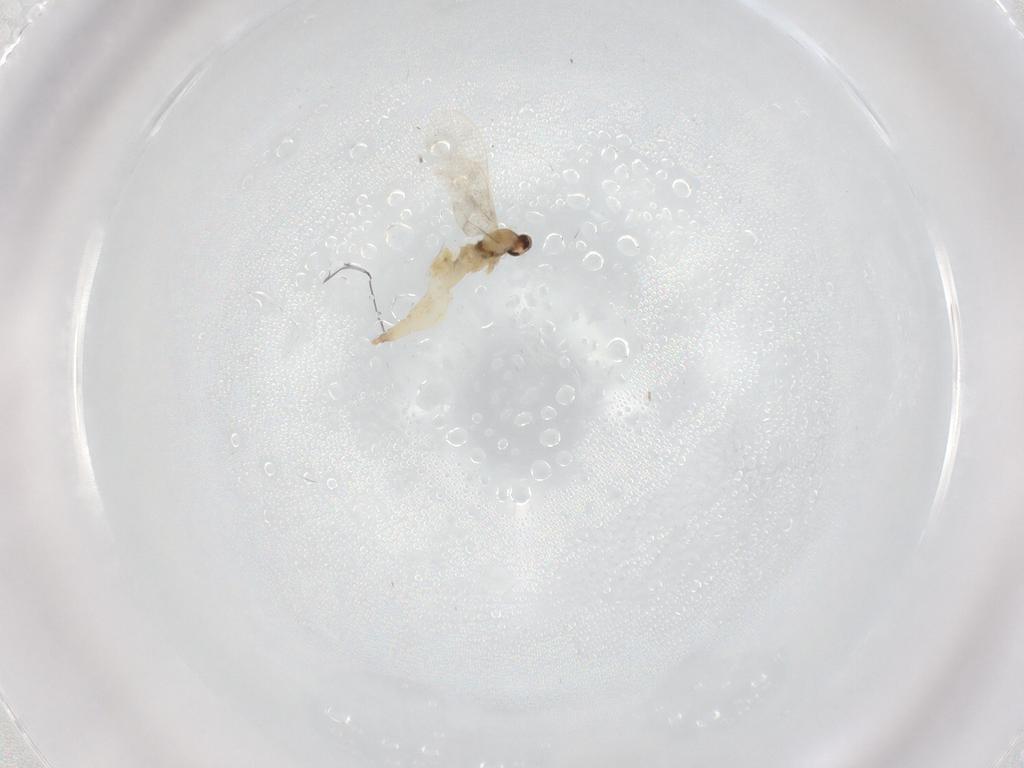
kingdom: Animalia
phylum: Arthropoda
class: Insecta
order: Diptera
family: Cecidomyiidae
